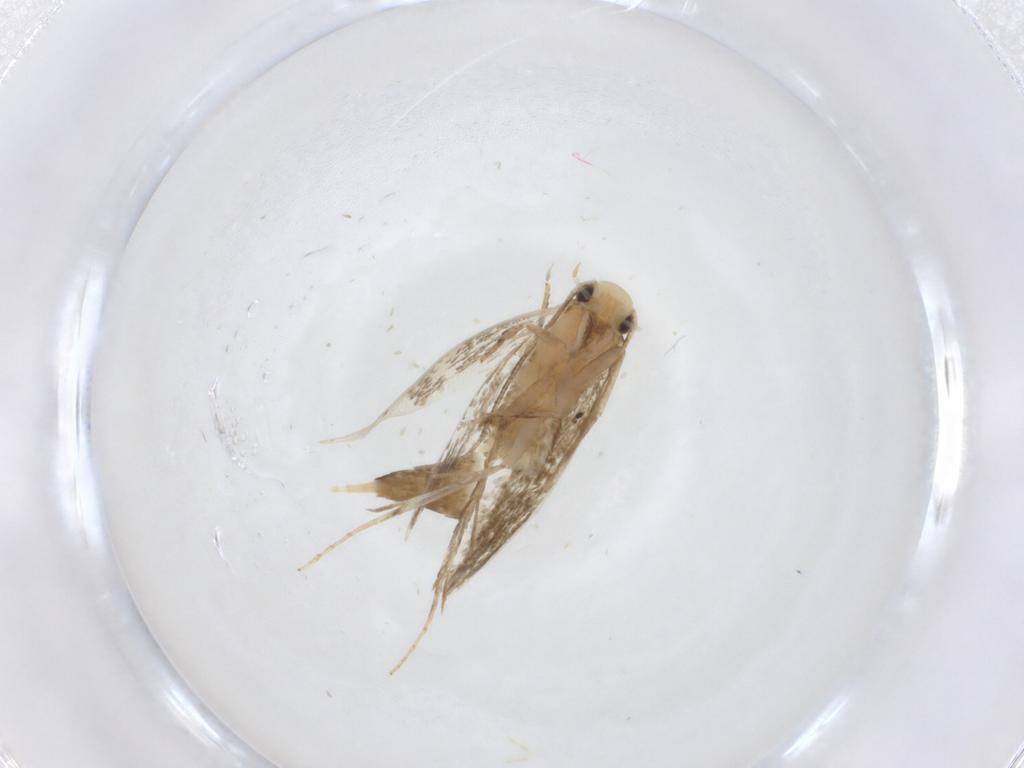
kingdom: Animalia
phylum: Arthropoda
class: Insecta
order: Lepidoptera
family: Tineidae
